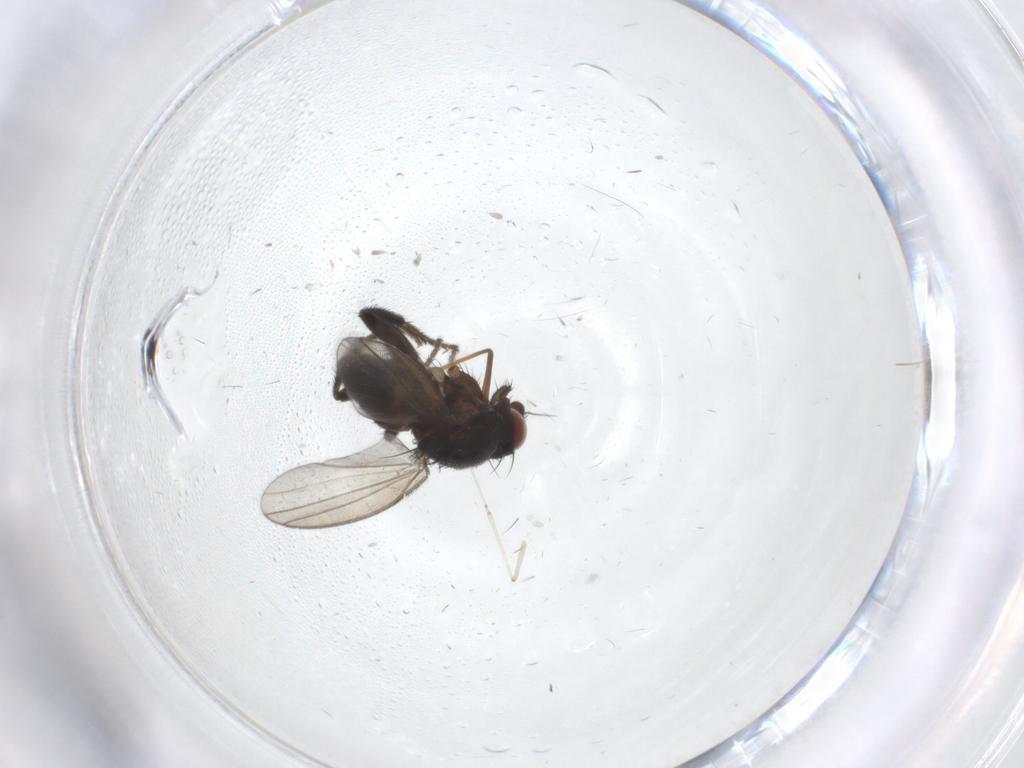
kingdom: Animalia
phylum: Arthropoda
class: Insecta
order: Diptera
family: Milichiidae
